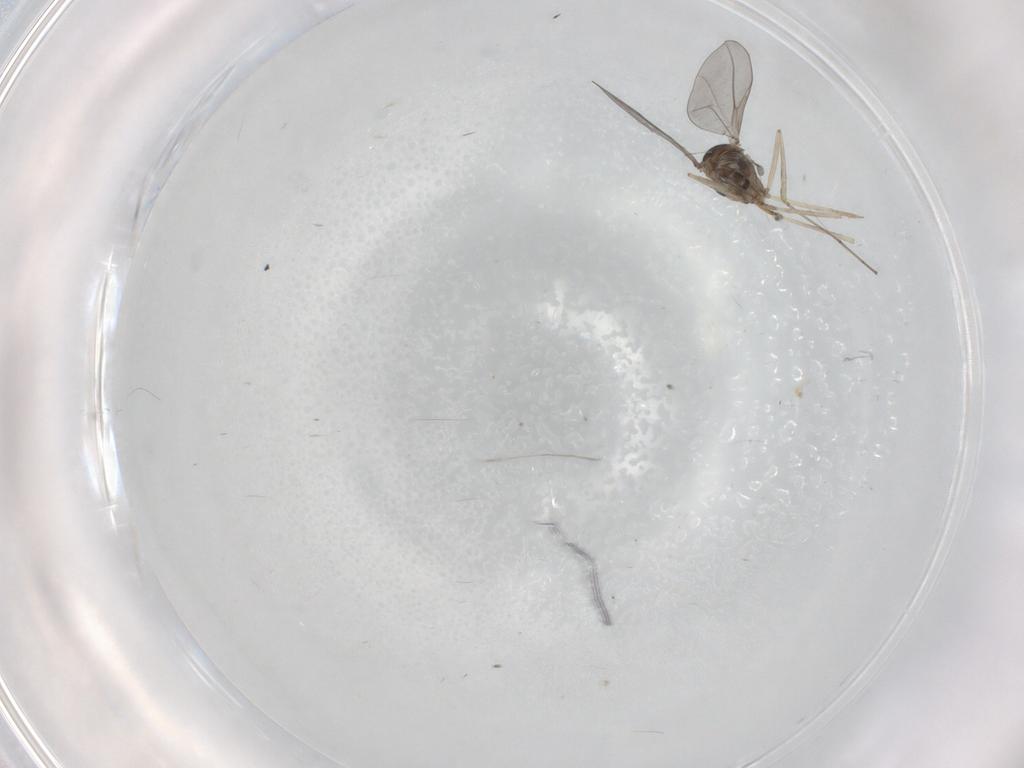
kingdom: Animalia
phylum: Arthropoda
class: Insecta
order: Diptera
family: Cecidomyiidae
